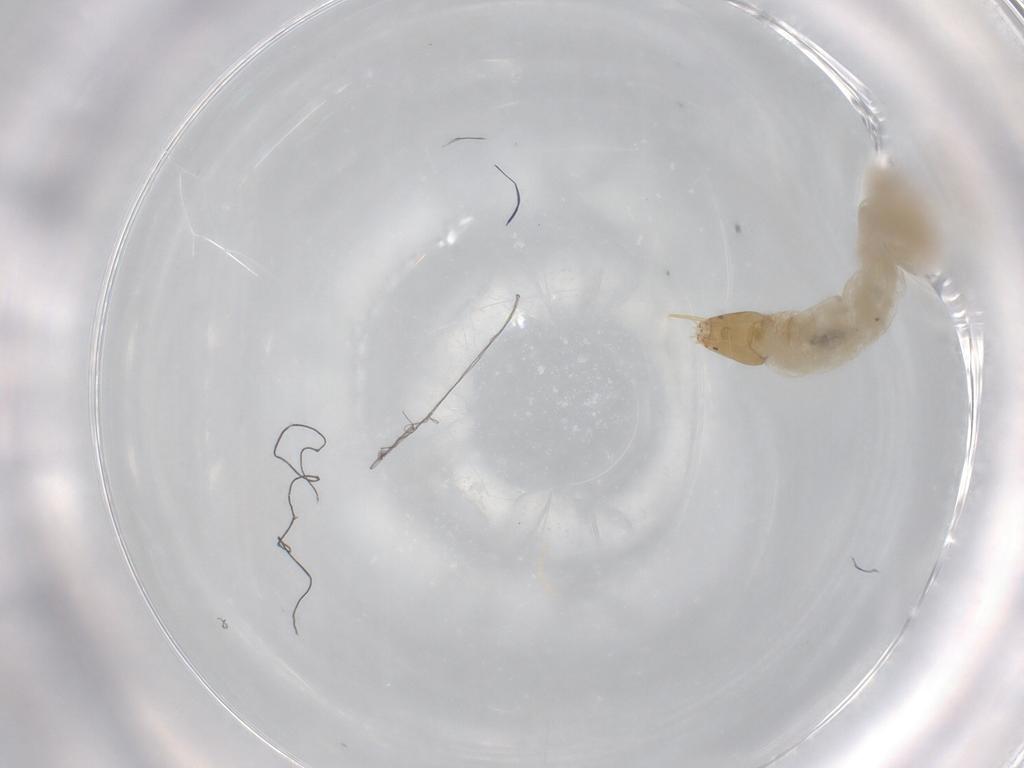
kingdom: Animalia
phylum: Arthropoda
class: Insecta
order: Diptera
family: Chironomidae
